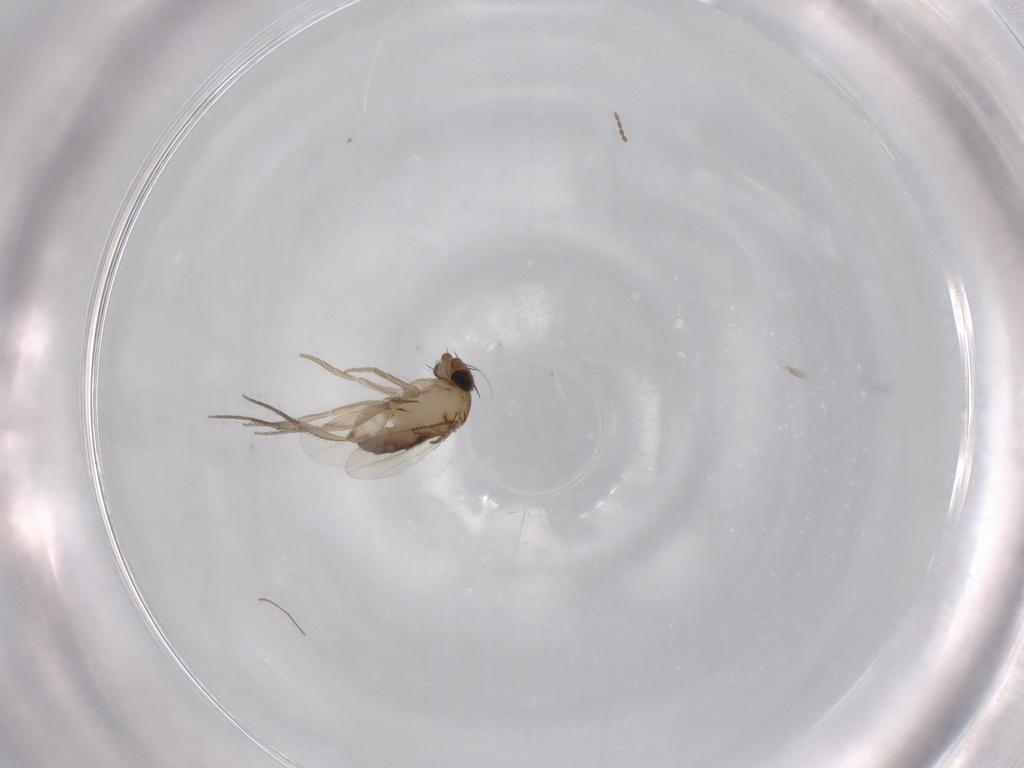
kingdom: Animalia
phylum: Arthropoda
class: Insecta
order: Diptera
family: Phoridae
